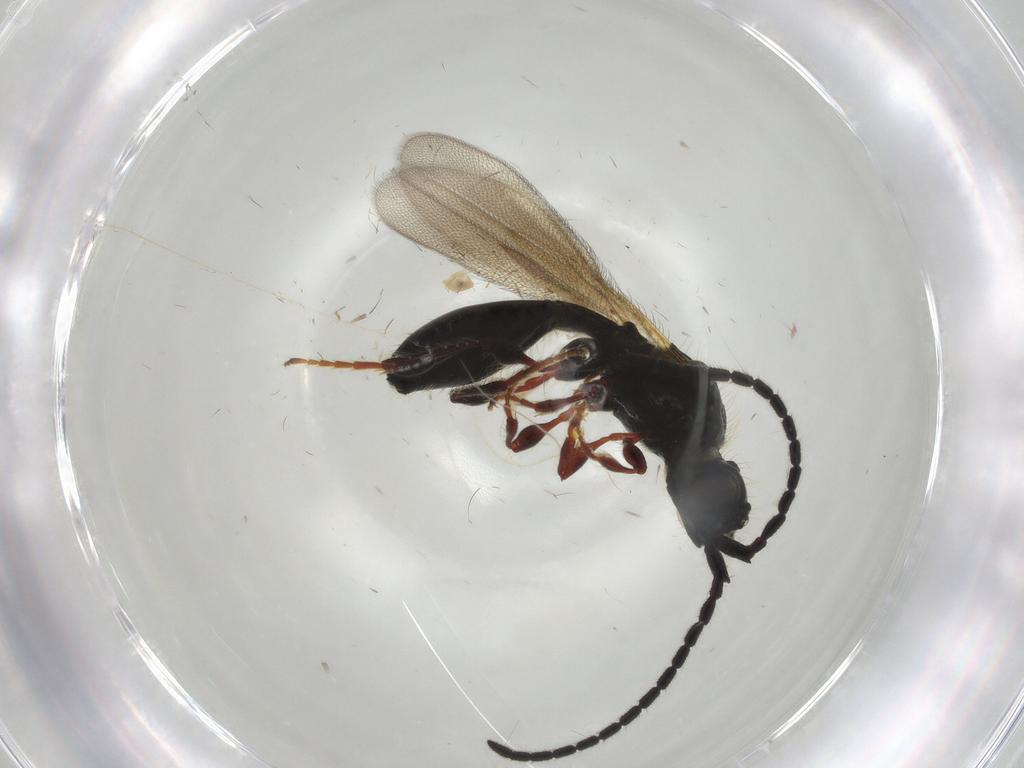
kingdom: Animalia
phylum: Arthropoda
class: Insecta
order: Hymenoptera
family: Diapriidae
